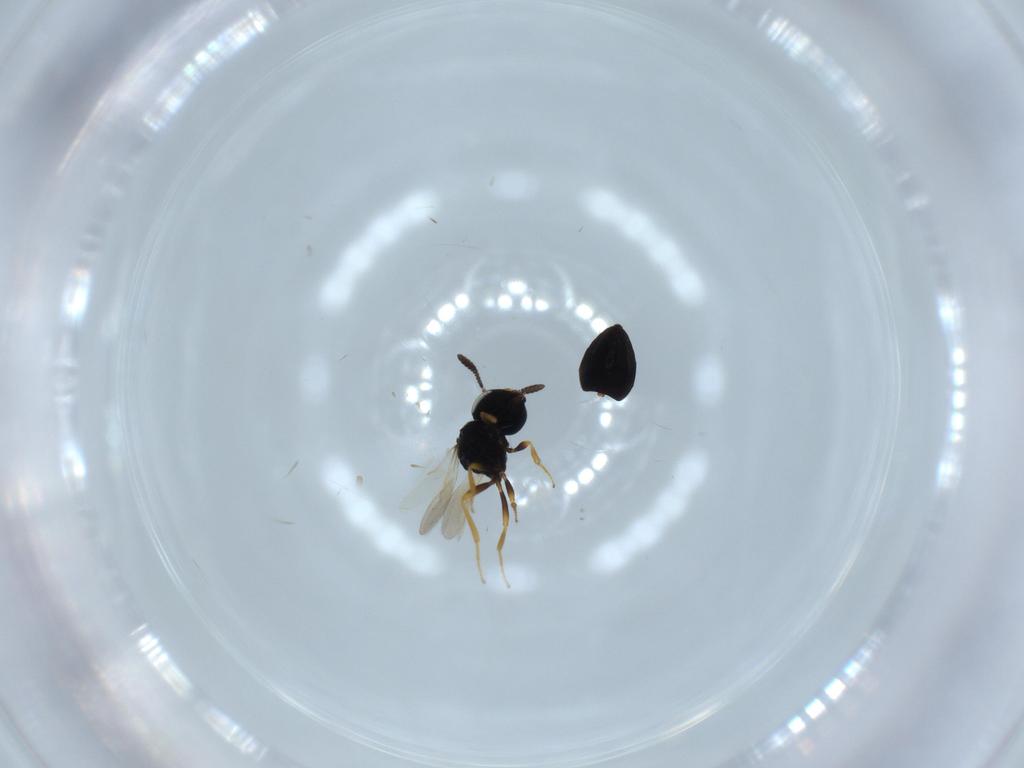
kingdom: Animalia
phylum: Arthropoda
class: Insecta
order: Hymenoptera
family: Scelionidae
